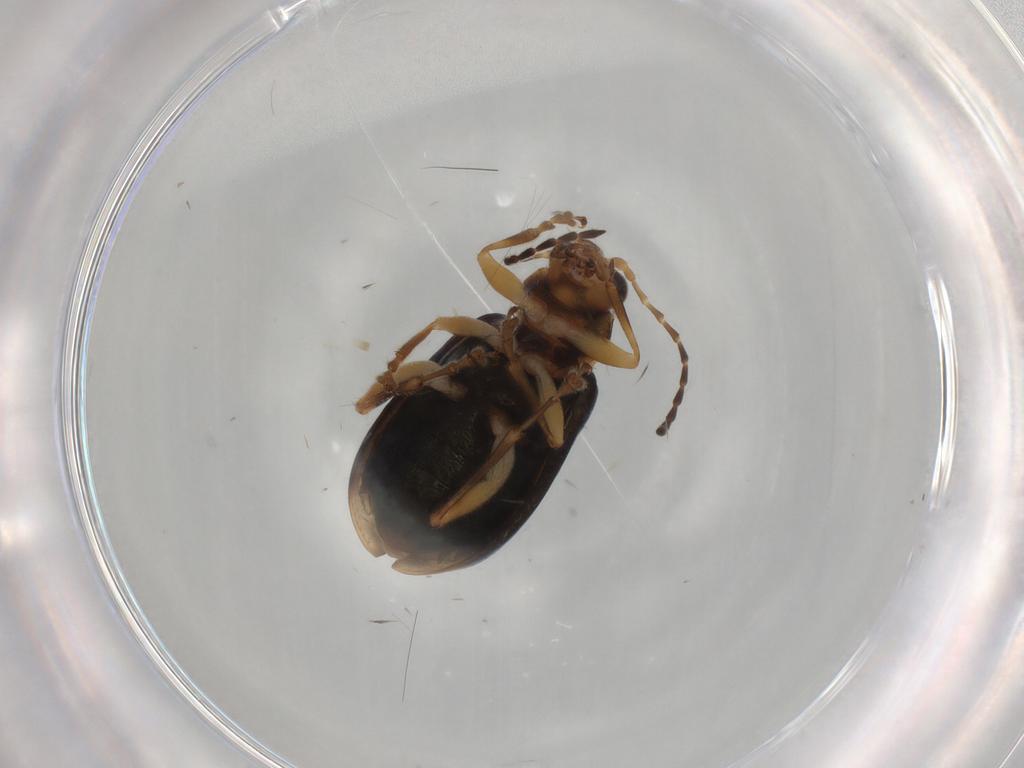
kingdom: Animalia
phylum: Arthropoda
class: Insecta
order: Coleoptera
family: Chrysomelidae
